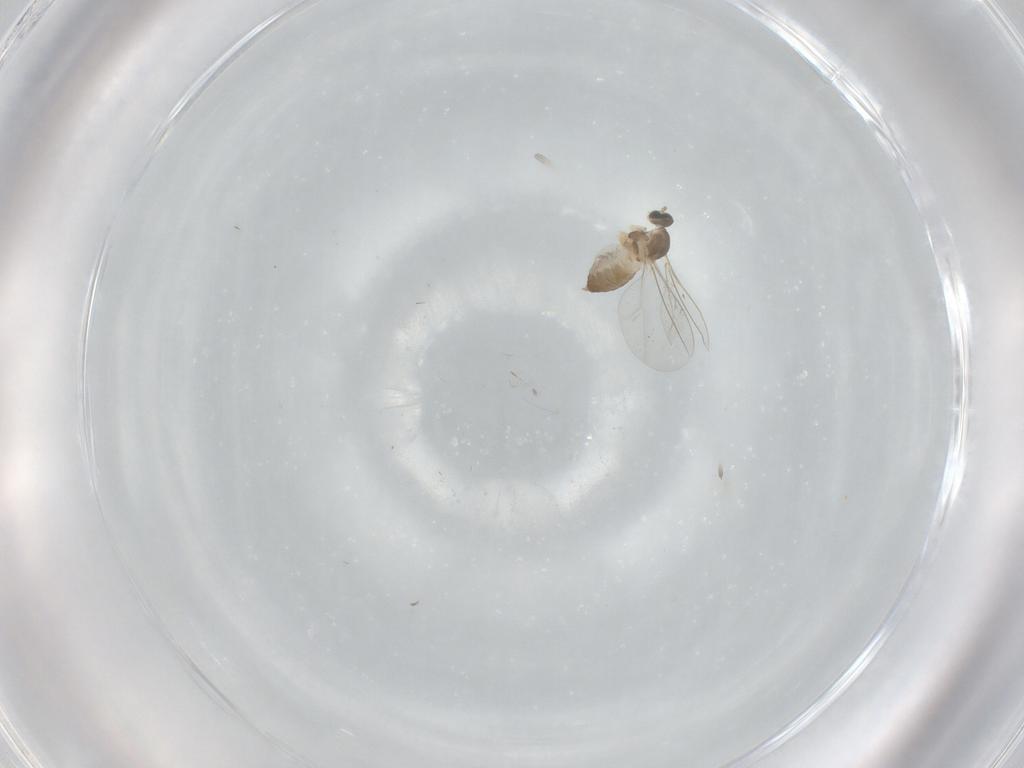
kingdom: Animalia
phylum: Arthropoda
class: Insecta
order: Diptera
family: Cecidomyiidae
